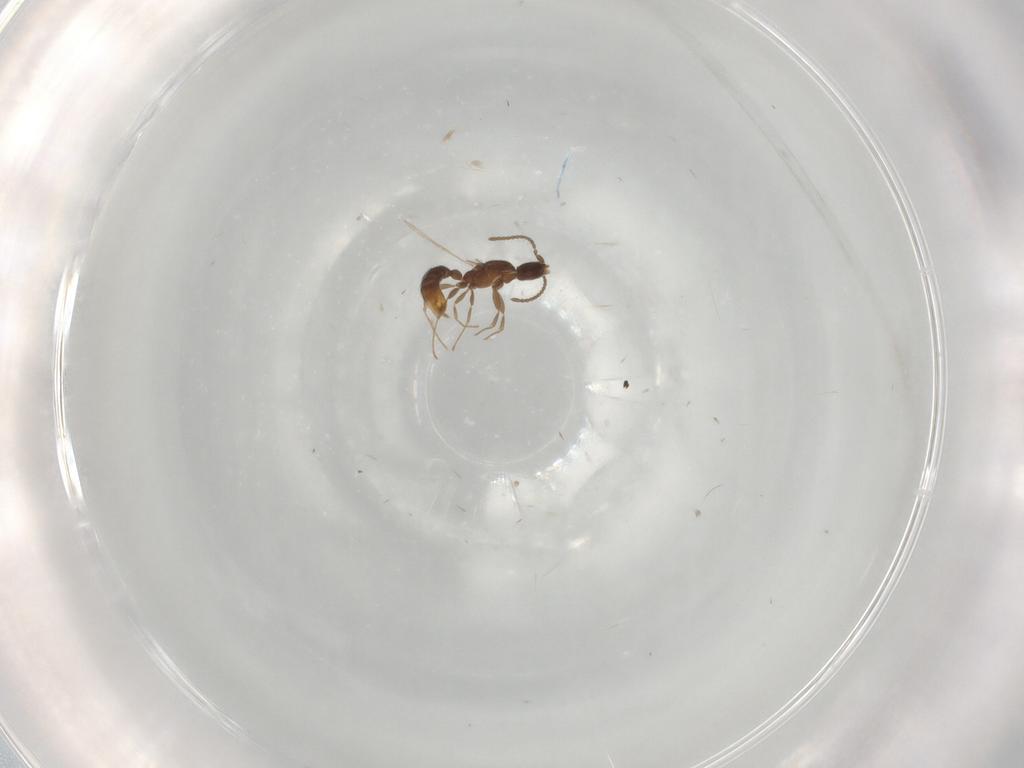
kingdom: Animalia
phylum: Arthropoda
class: Insecta
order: Hymenoptera
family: Formicidae
